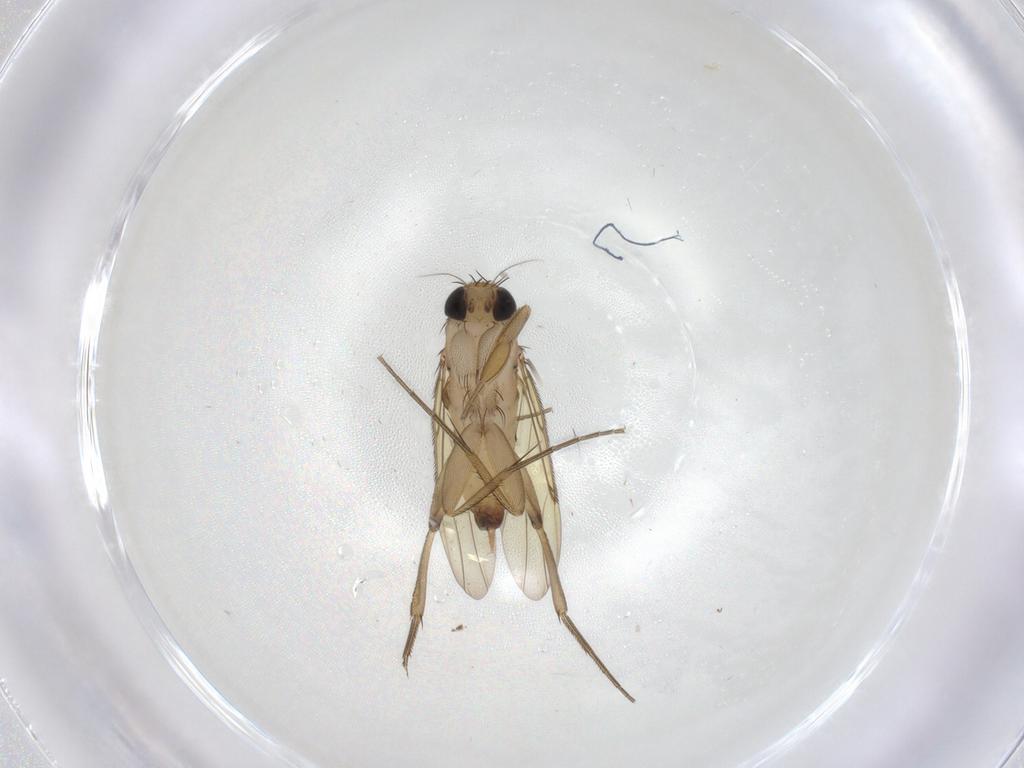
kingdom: Animalia
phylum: Arthropoda
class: Insecta
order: Diptera
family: Phoridae
